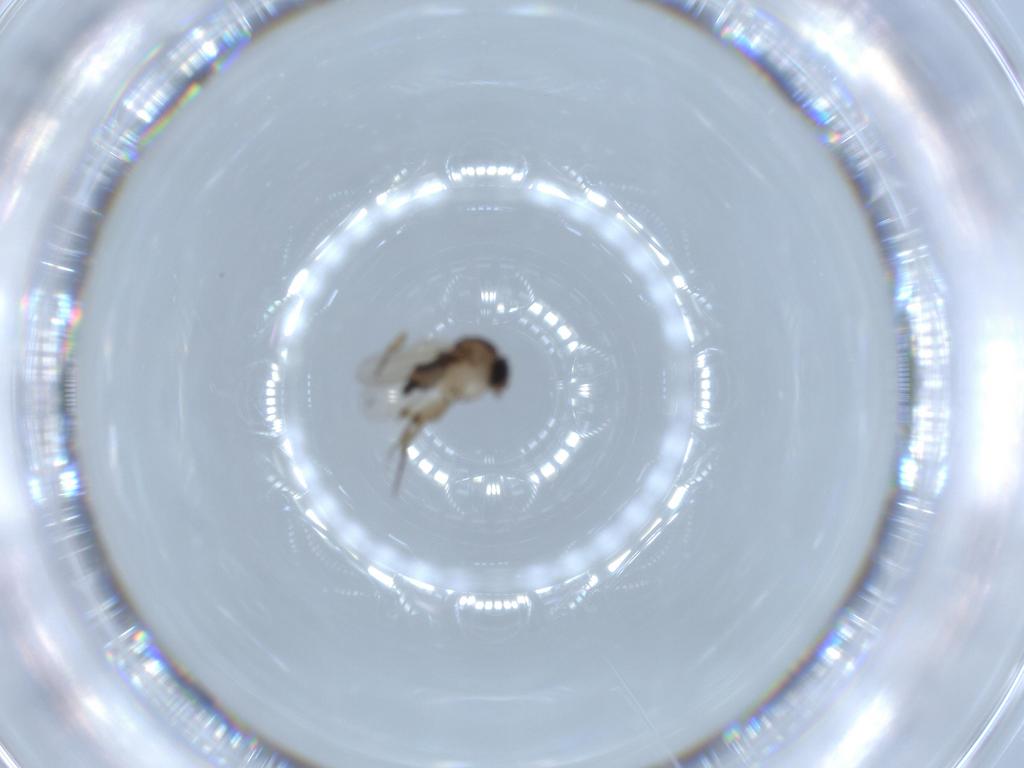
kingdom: Animalia
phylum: Arthropoda
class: Insecta
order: Diptera
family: Phoridae
